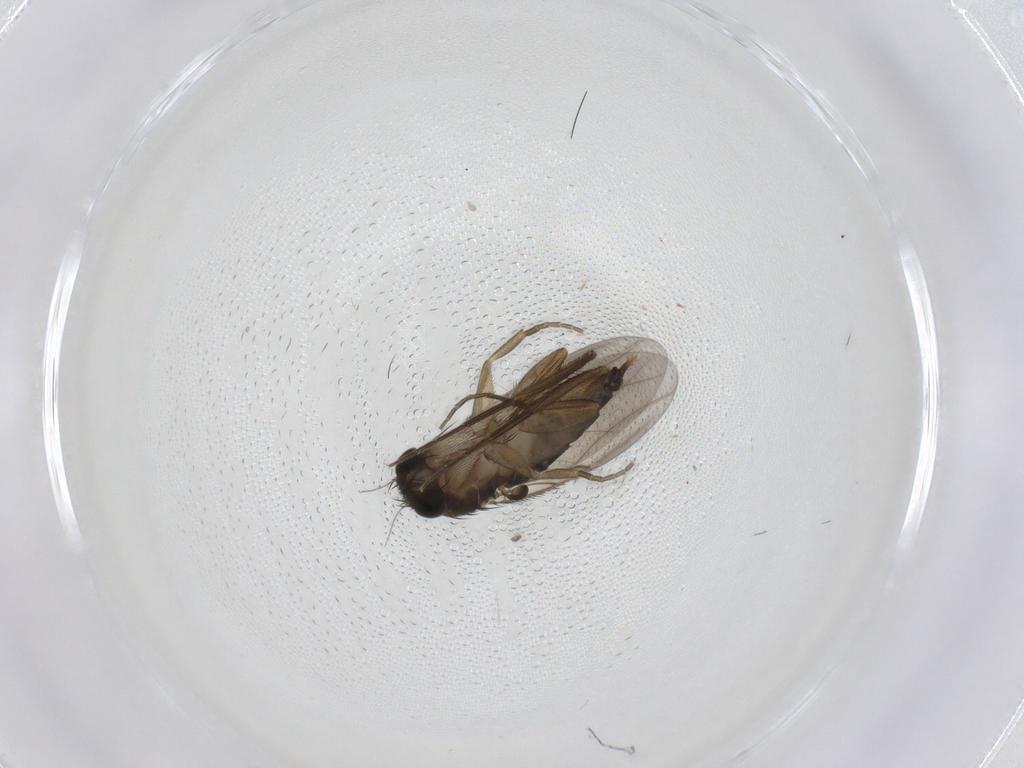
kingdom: Animalia
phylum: Arthropoda
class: Insecta
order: Diptera
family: Phoridae
